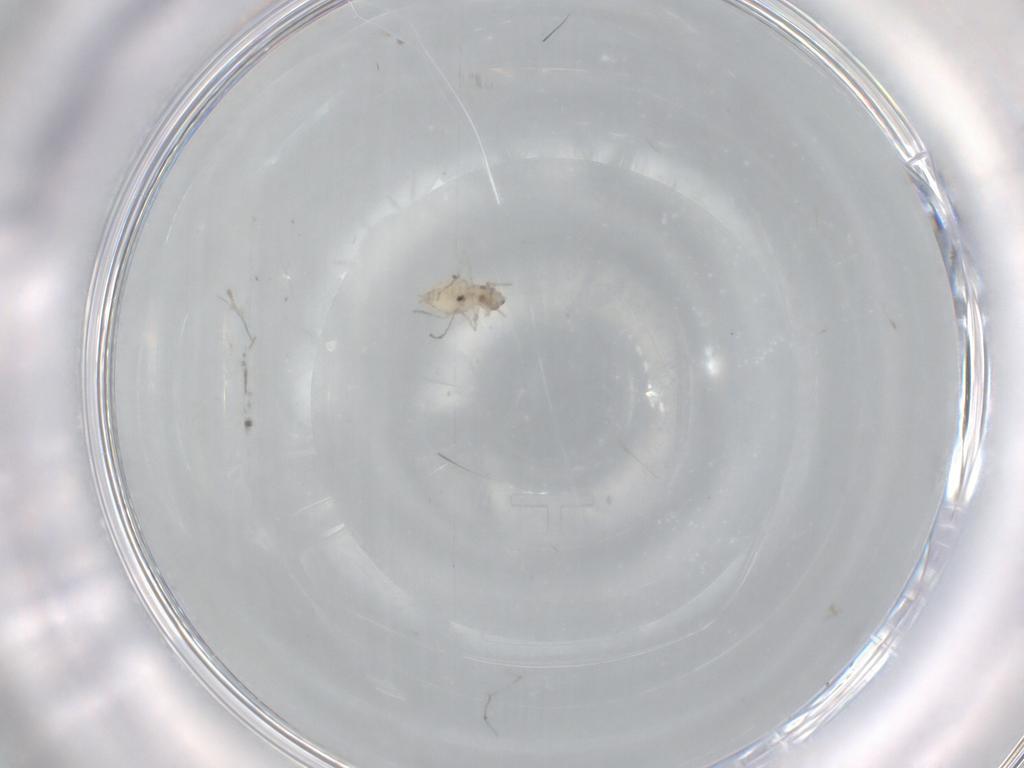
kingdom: Animalia
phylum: Arthropoda
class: Insecta
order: Diptera
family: Cecidomyiidae
